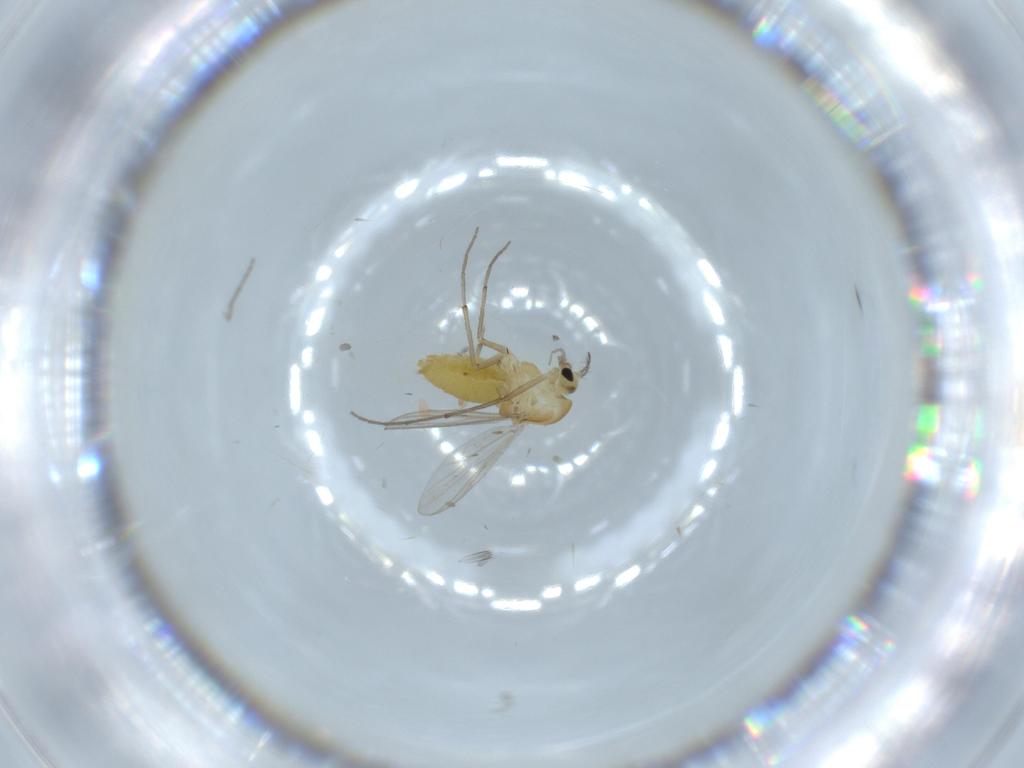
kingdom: Animalia
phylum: Arthropoda
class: Insecta
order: Diptera
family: Chironomidae
